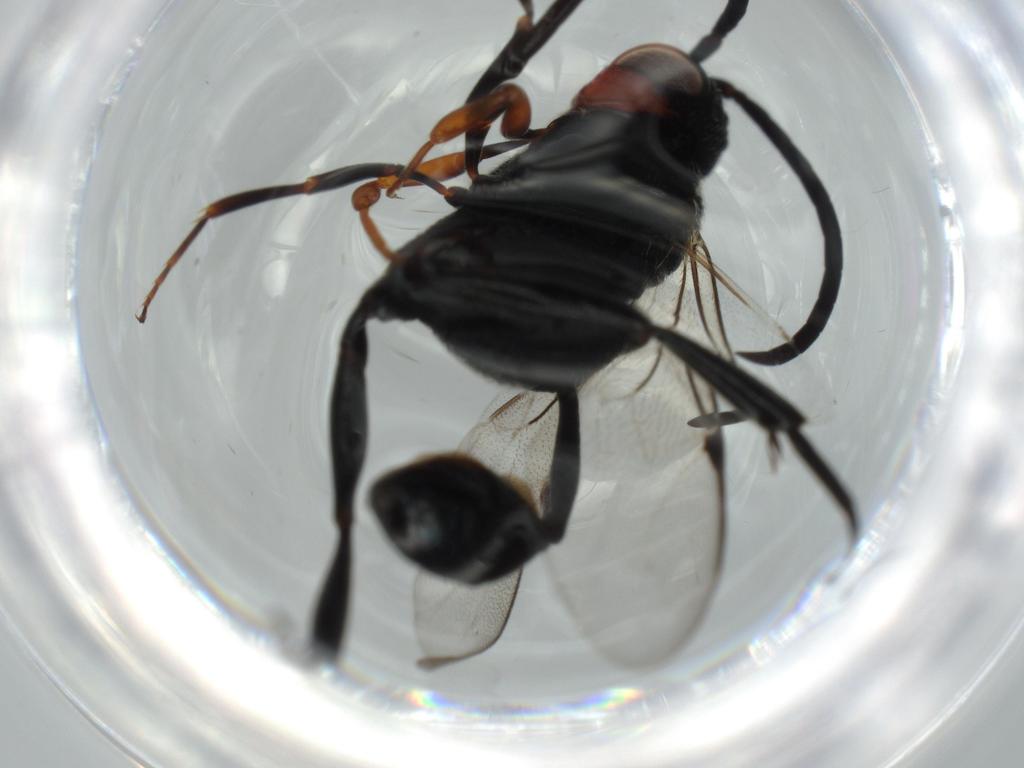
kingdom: Animalia
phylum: Arthropoda
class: Insecta
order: Hymenoptera
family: Evaniidae
